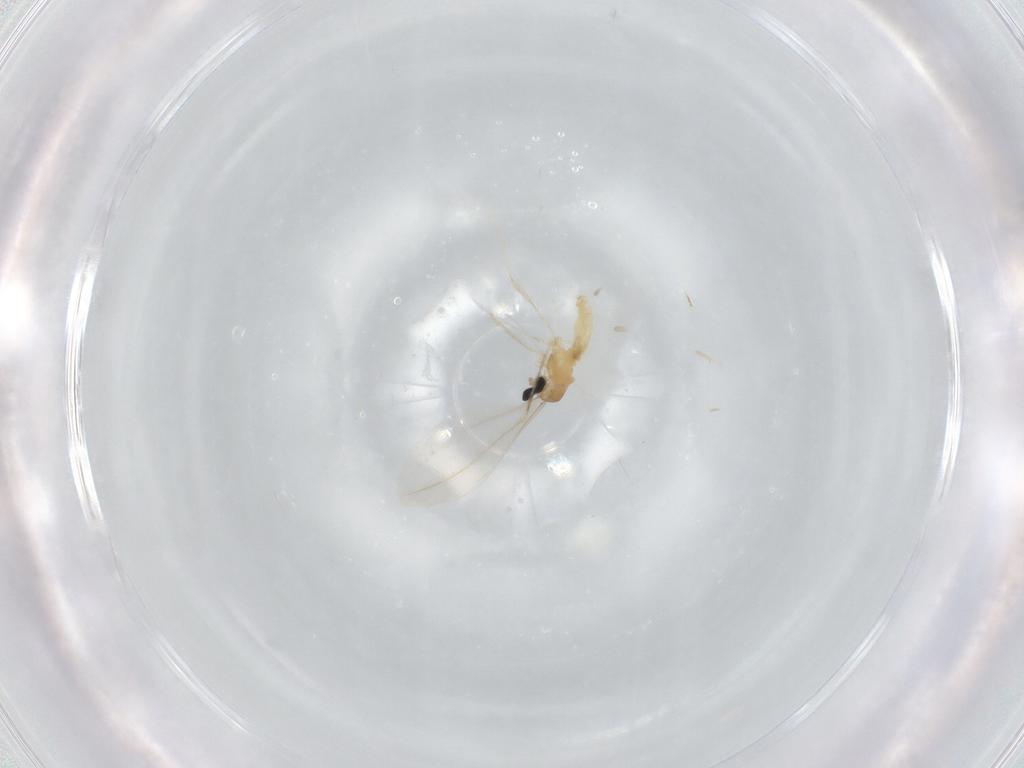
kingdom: Animalia
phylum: Arthropoda
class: Insecta
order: Diptera
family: Cecidomyiidae
